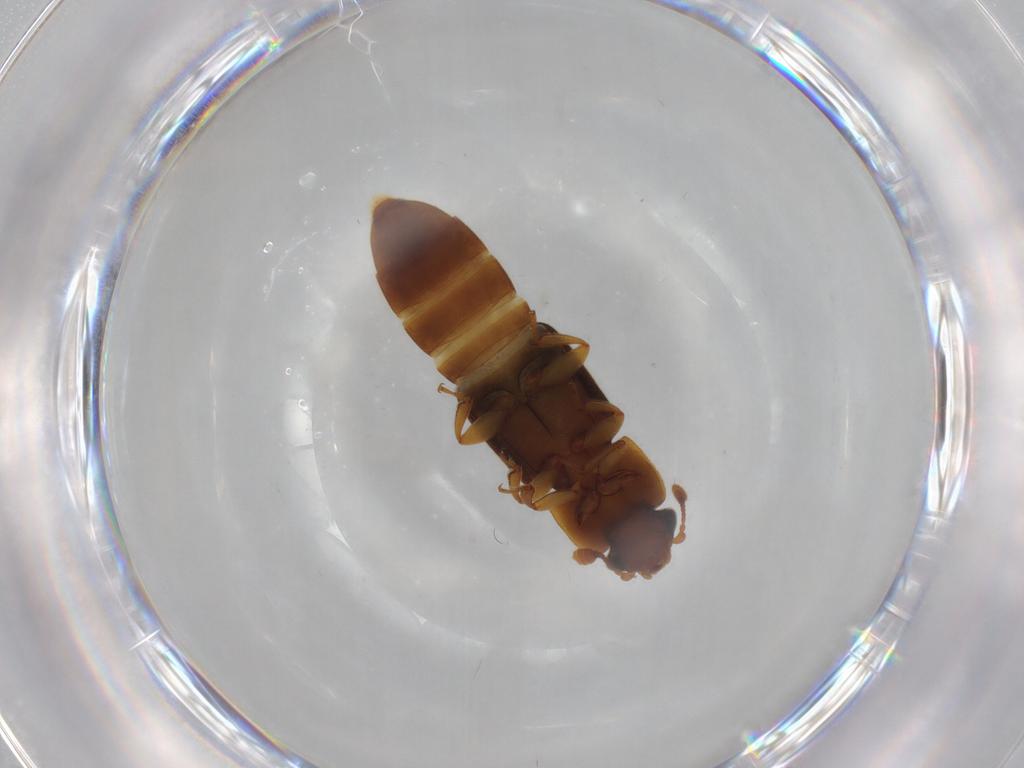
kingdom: Animalia
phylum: Arthropoda
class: Insecta
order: Coleoptera
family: Nitidulidae
